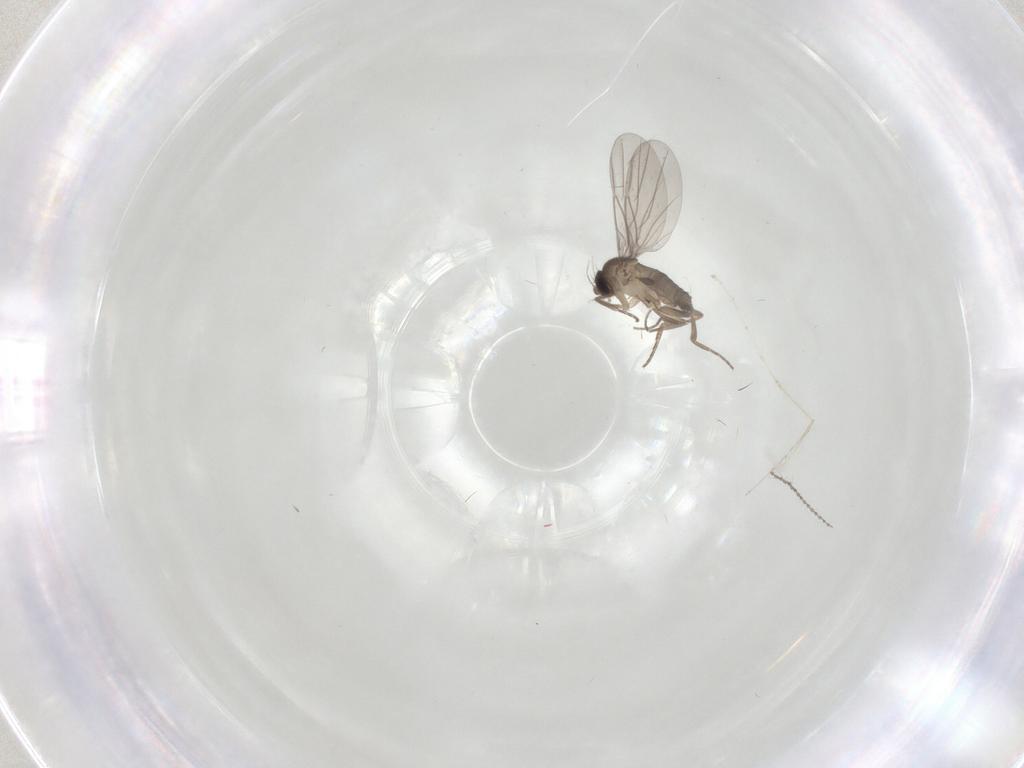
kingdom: Animalia
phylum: Arthropoda
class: Insecta
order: Diptera
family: Cecidomyiidae
